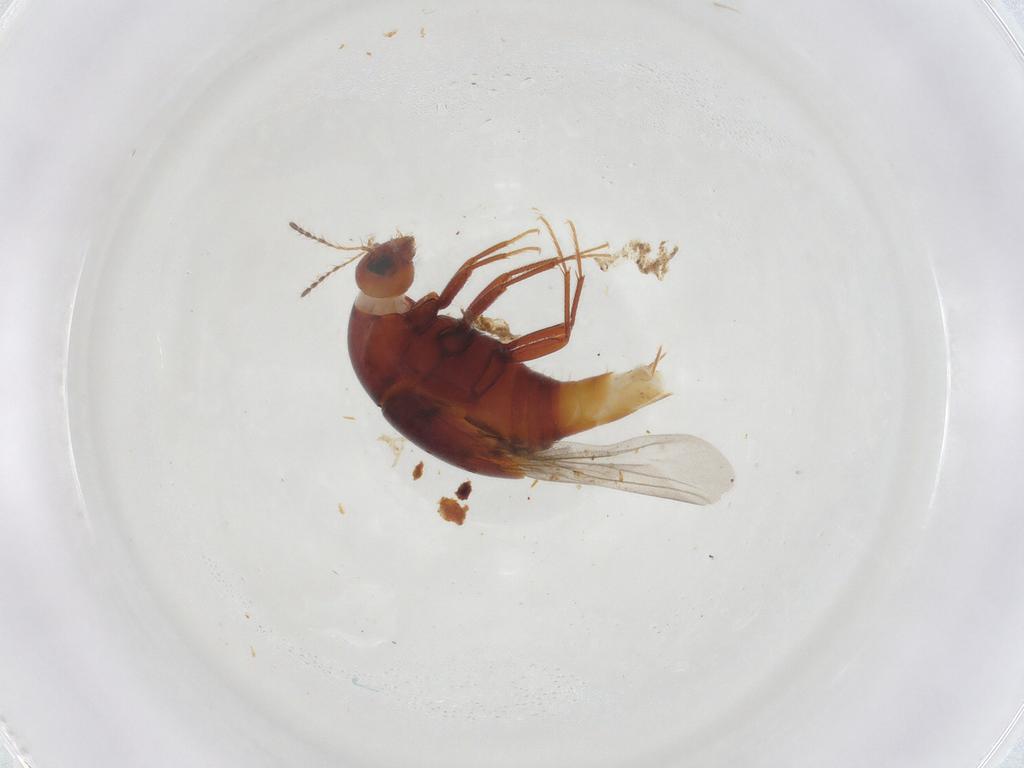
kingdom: Animalia
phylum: Arthropoda
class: Insecta
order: Coleoptera
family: Staphylinidae
